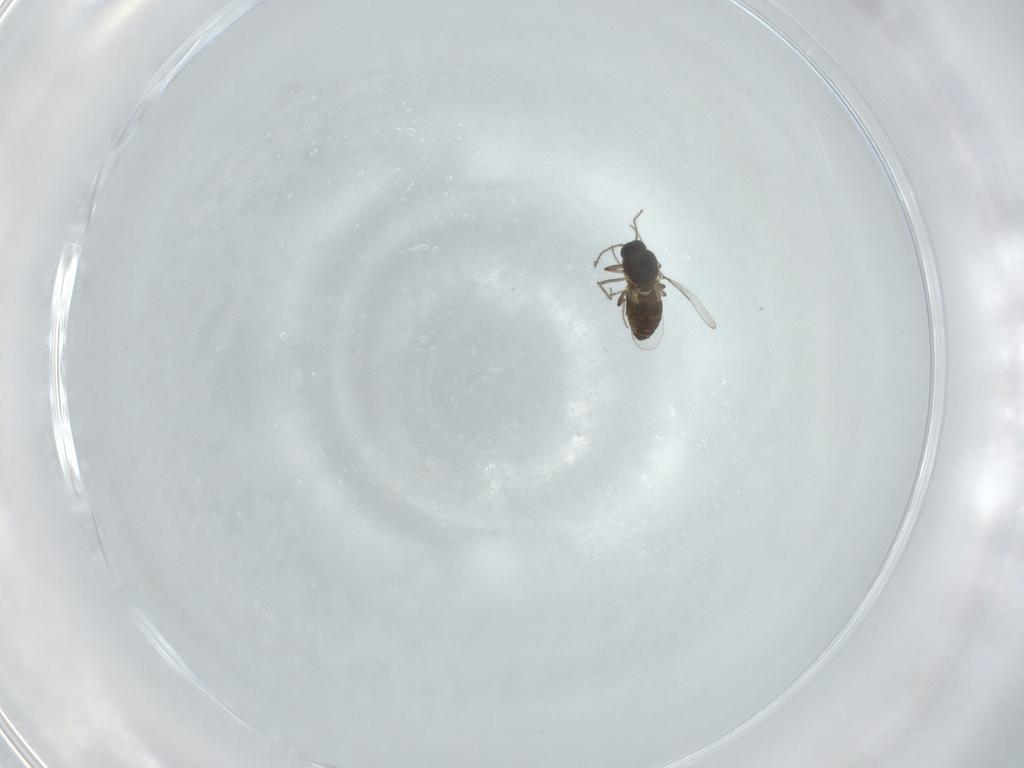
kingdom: Animalia
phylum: Arthropoda
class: Insecta
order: Diptera
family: Ceratopogonidae
